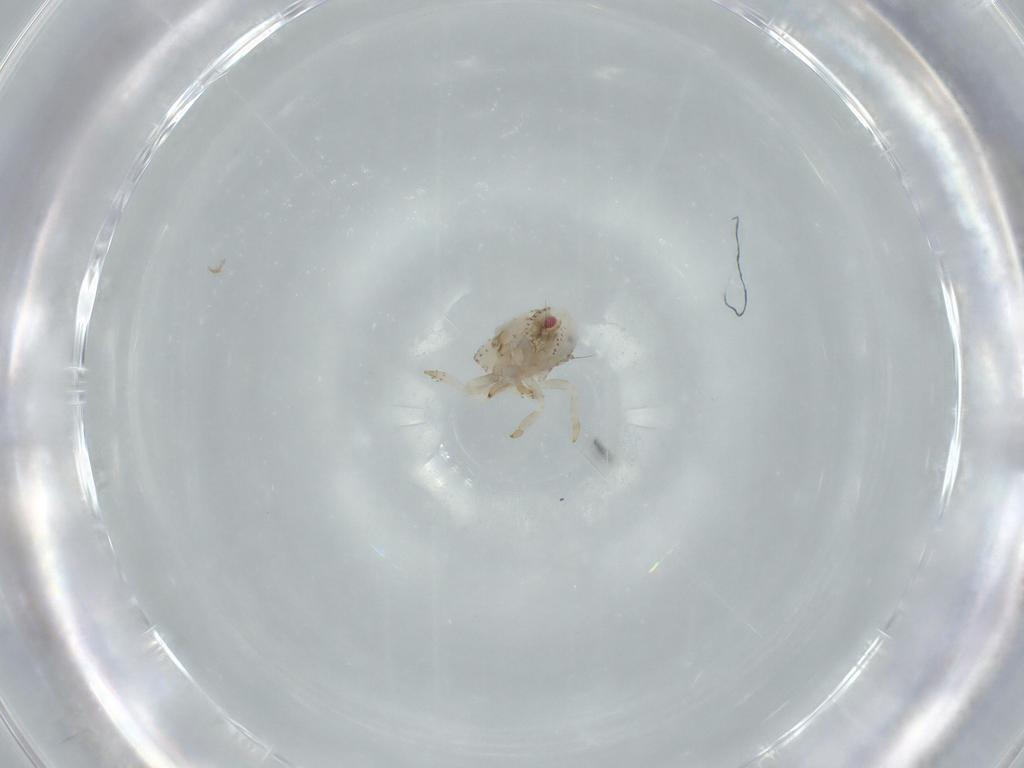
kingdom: Animalia
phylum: Arthropoda
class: Insecta
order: Hemiptera
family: Acanaloniidae
